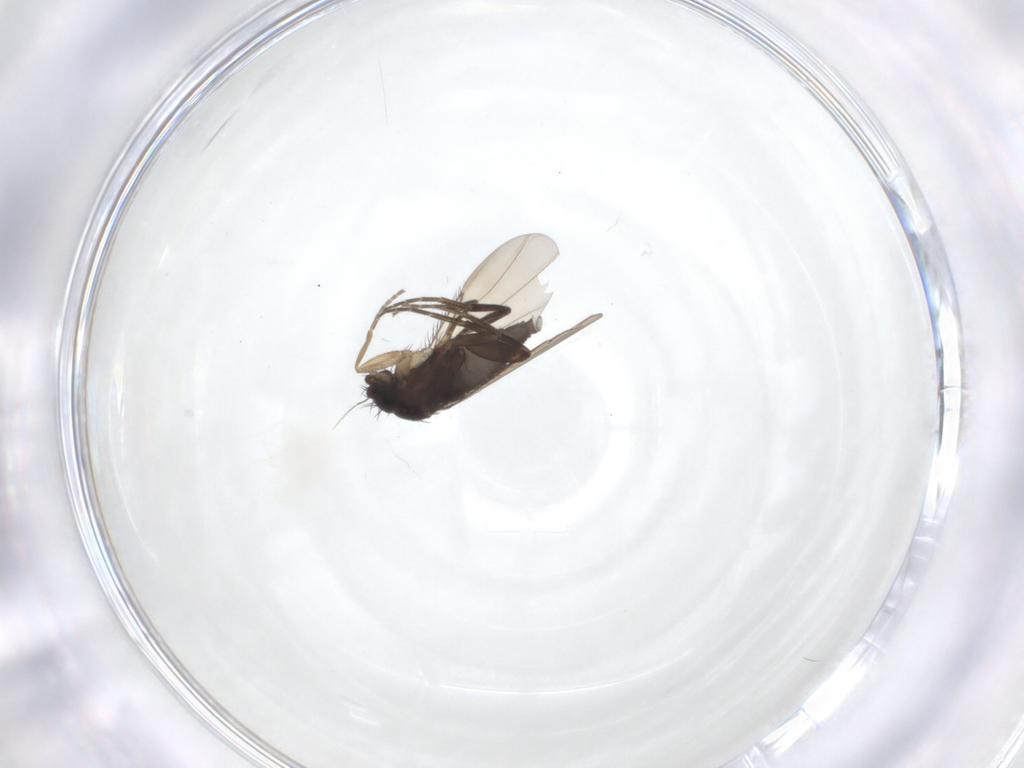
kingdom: Animalia
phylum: Arthropoda
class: Insecta
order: Diptera
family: Phoridae
